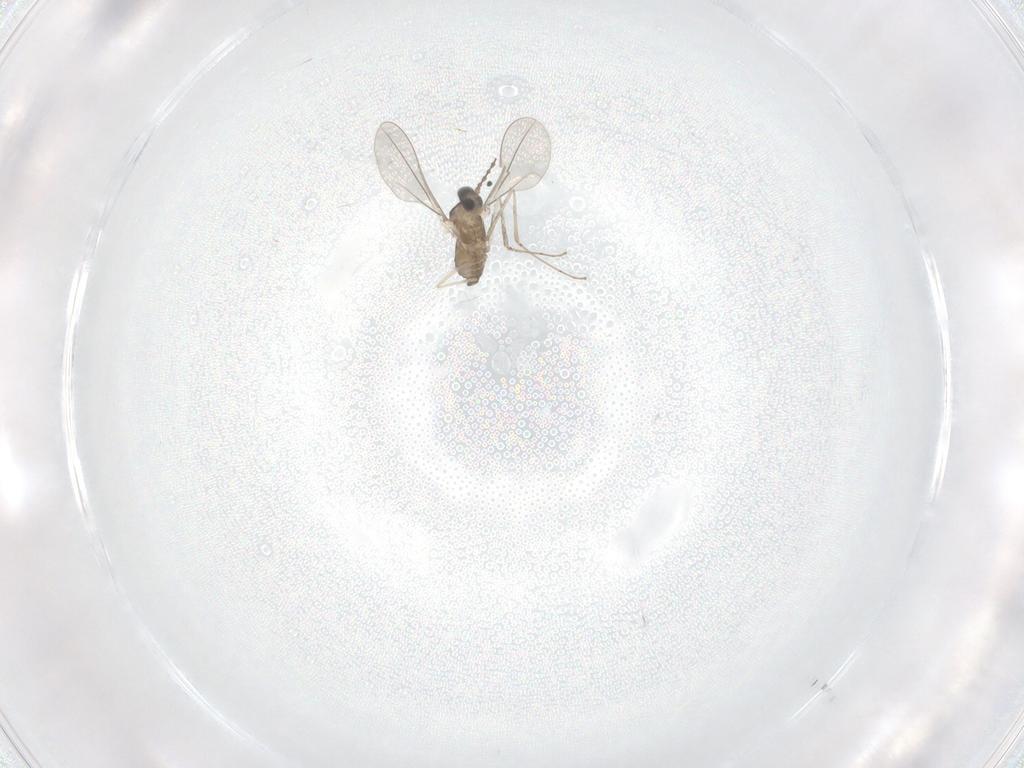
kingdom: Animalia
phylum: Arthropoda
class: Insecta
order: Diptera
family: Cecidomyiidae
